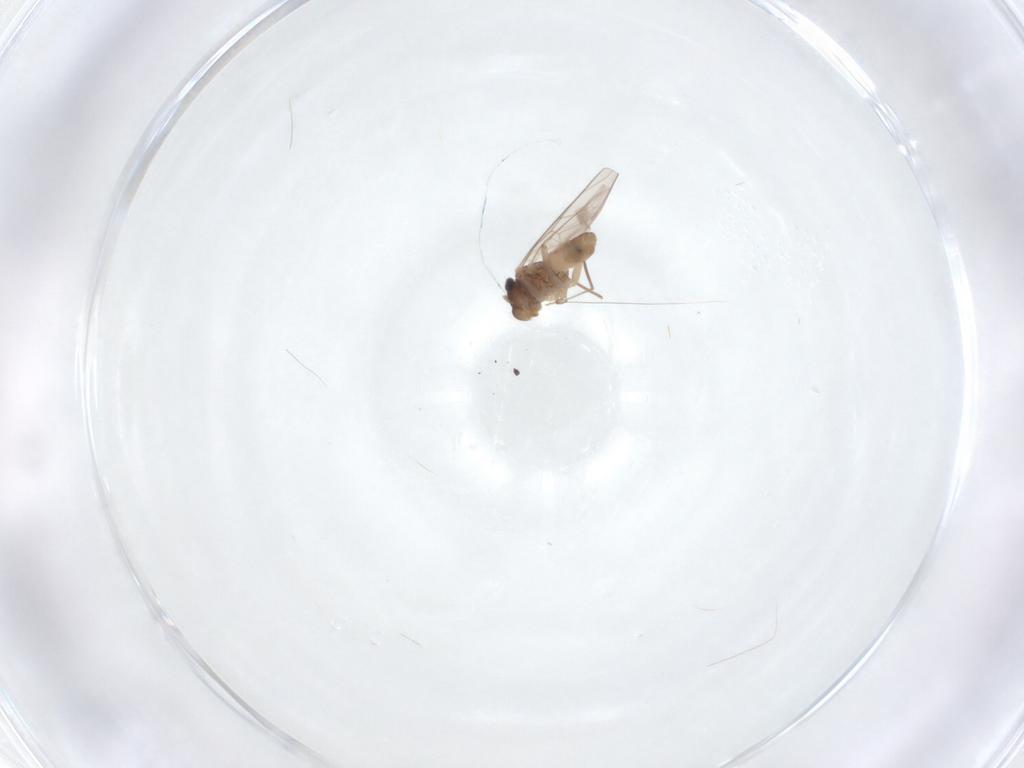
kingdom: Animalia
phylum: Arthropoda
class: Insecta
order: Psocodea
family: Lepidopsocidae
